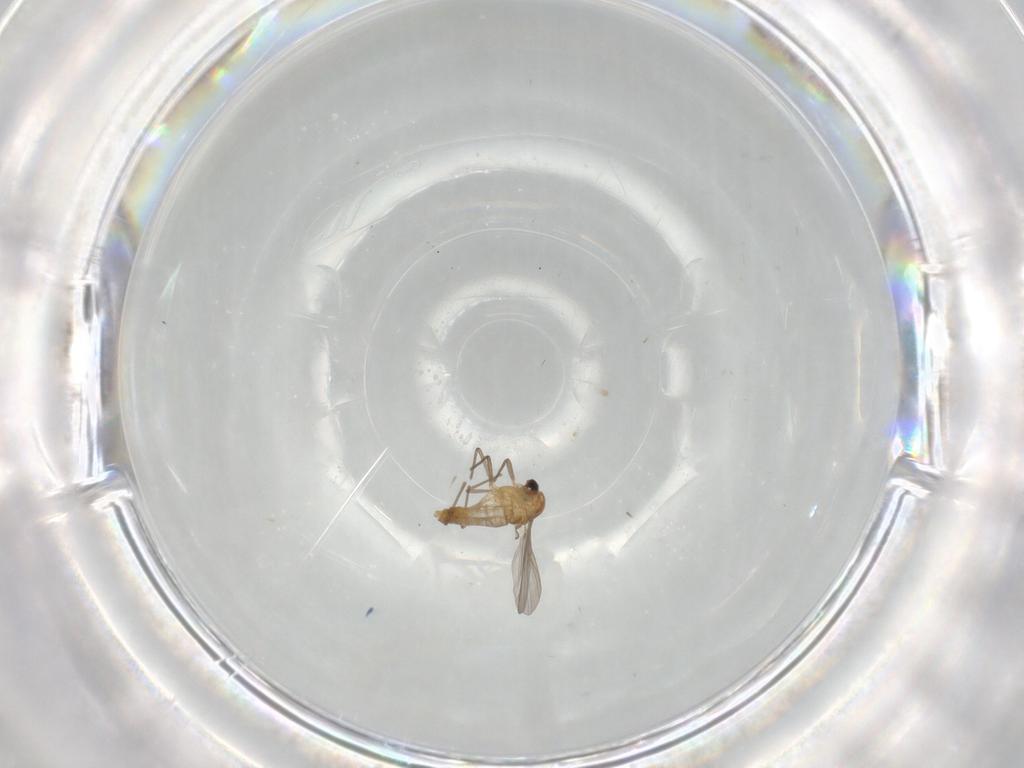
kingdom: Animalia
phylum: Arthropoda
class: Insecta
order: Diptera
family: Chironomidae
